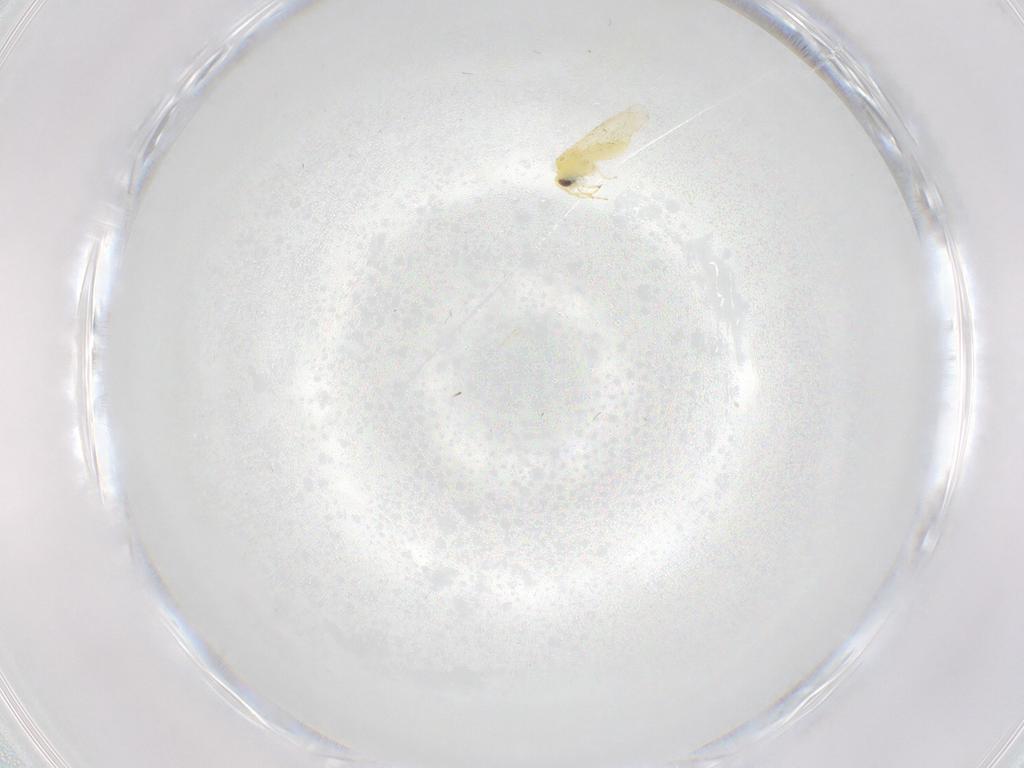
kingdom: Animalia
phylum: Arthropoda
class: Insecta
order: Hemiptera
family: Aleyrodidae
